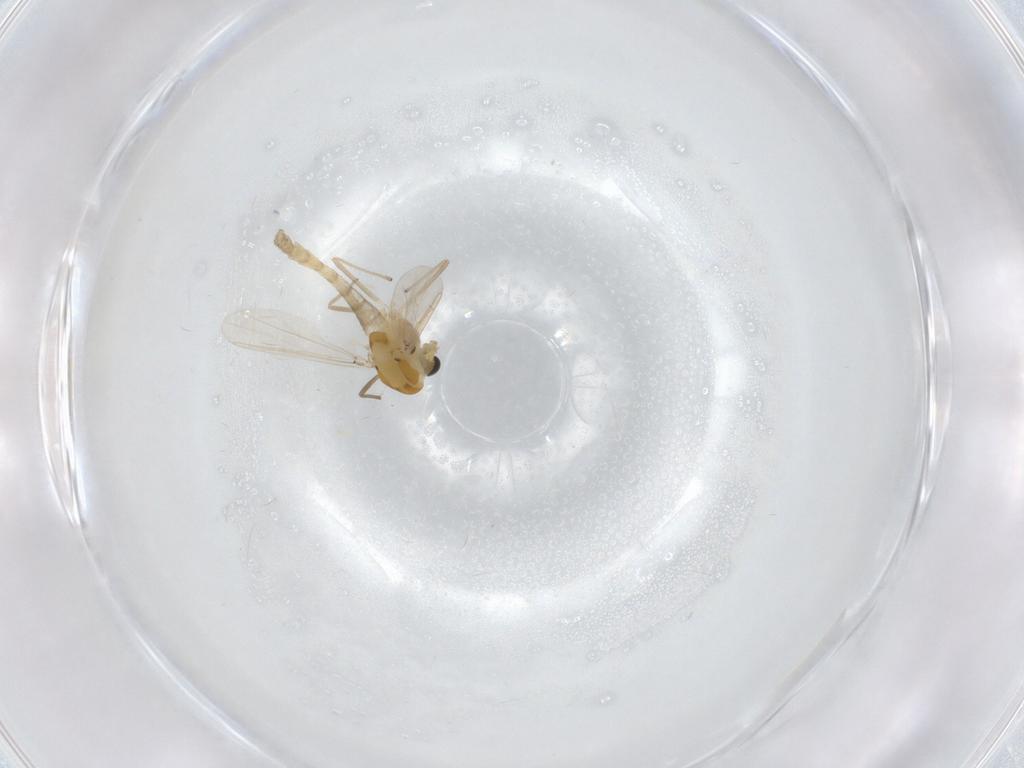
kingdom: Animalia
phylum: Arthropoda
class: Insecta
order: Diptera
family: Chironomidae
